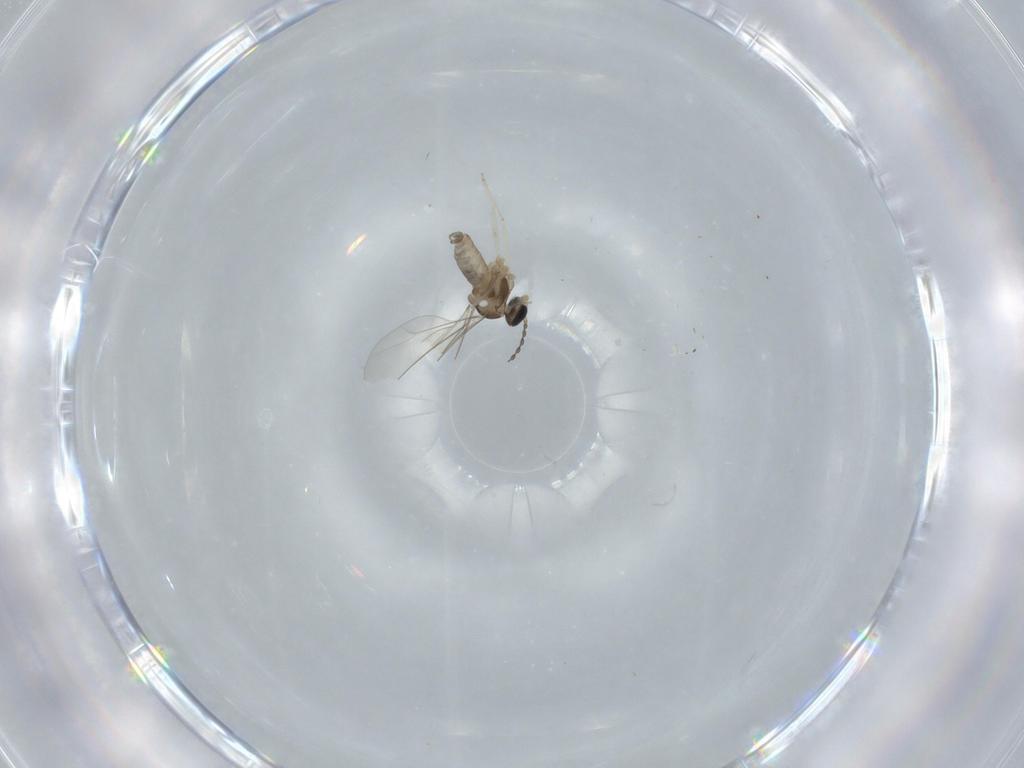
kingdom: Animalia
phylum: Arthropoda
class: Insecta
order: Diptera
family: Cecidomyiidae
